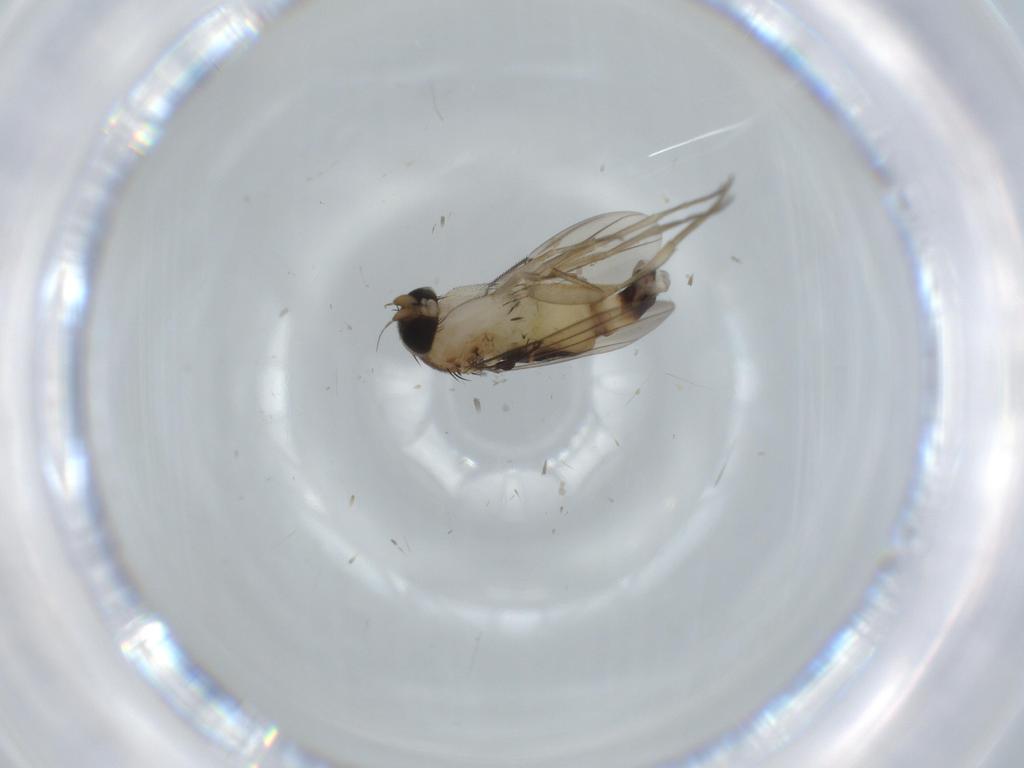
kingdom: Animalia
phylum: Arthropoda
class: Insecta
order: Diptera
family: Phoridae
